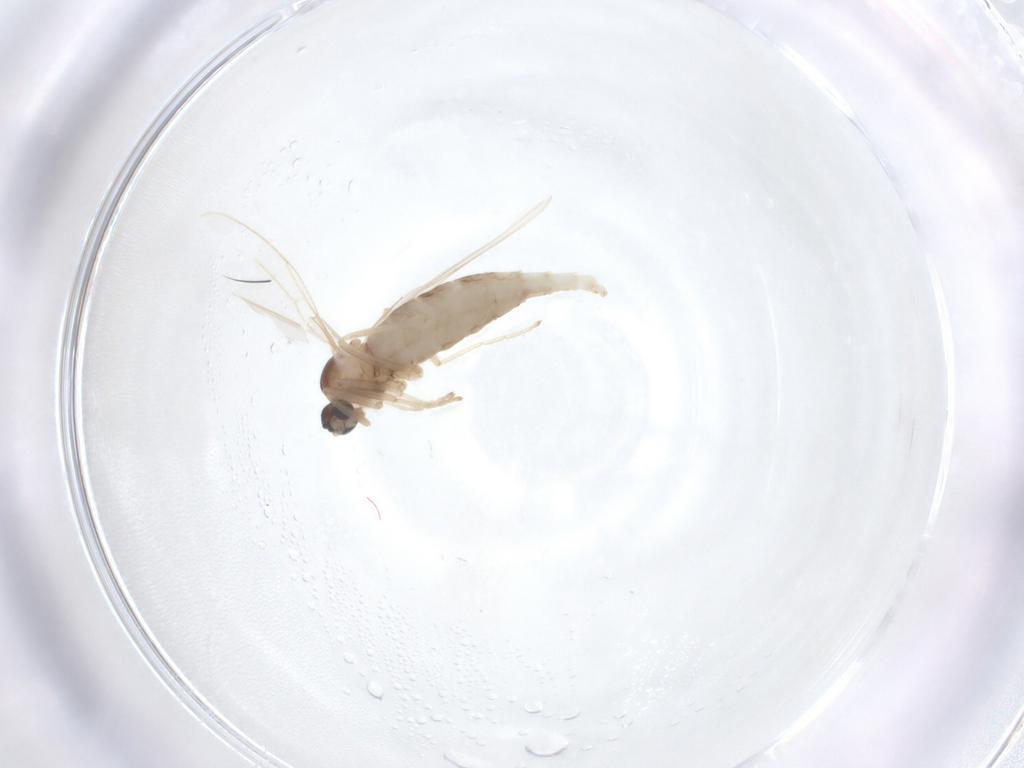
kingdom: Animalia
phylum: Arthropoda
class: Insecta
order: Diptera
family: Cecidomyiidae
